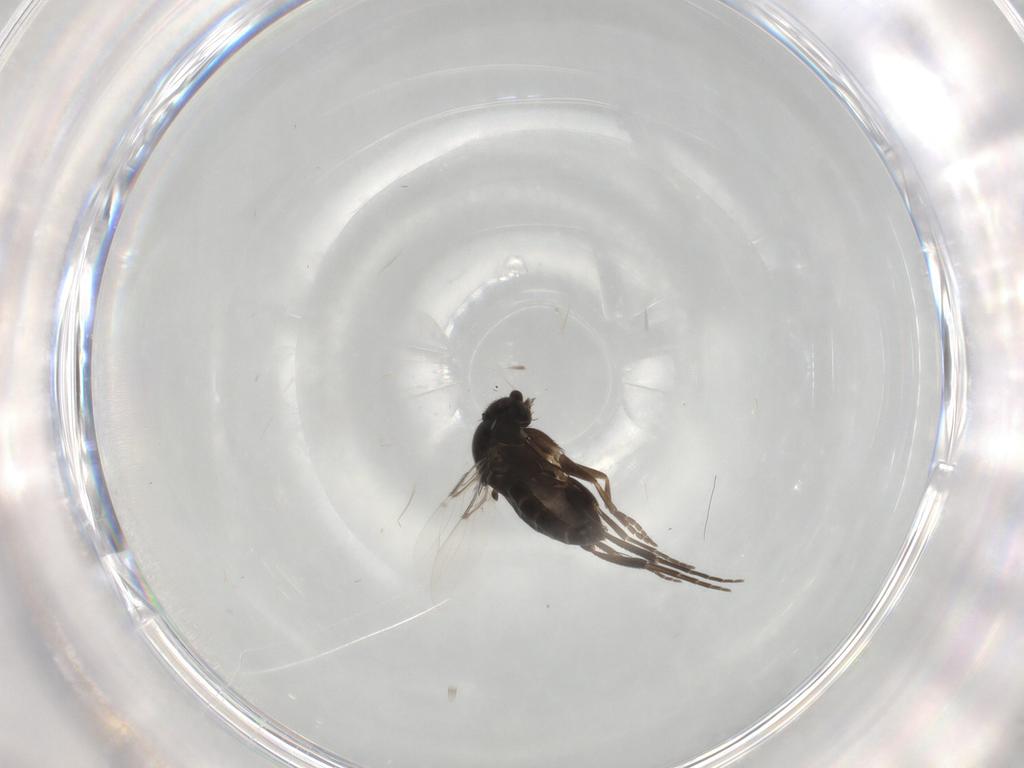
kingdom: Animalia
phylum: Arthropoda
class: Insecta
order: Diptera
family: Phoridae
